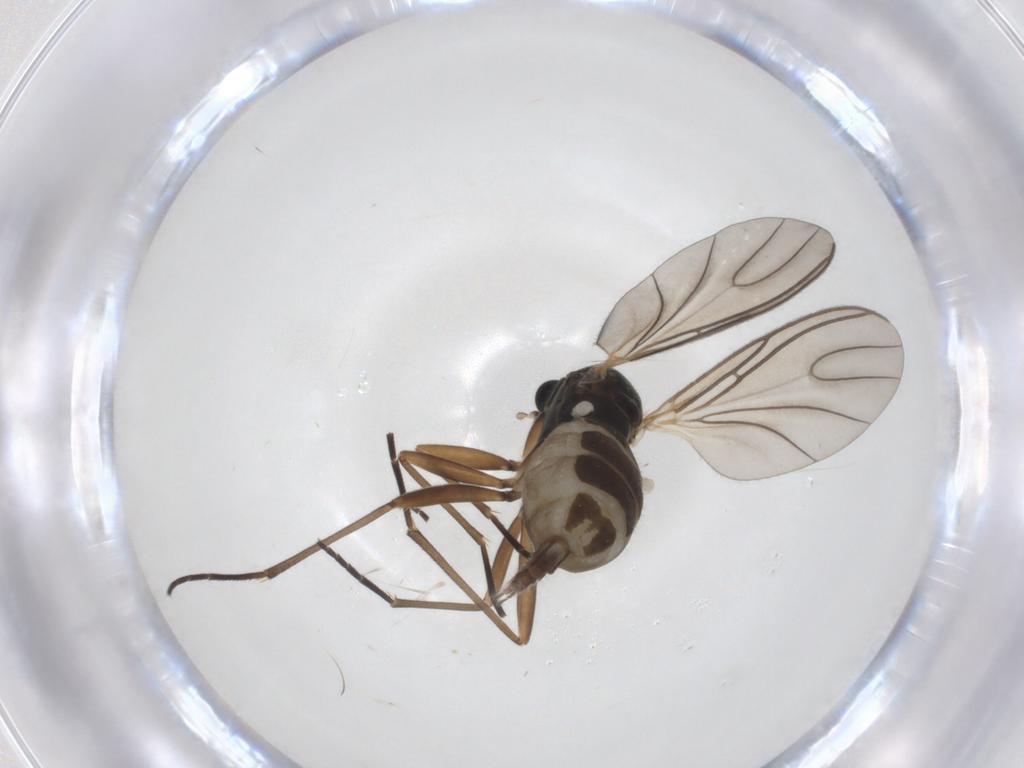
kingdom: Animalia
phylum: Arthropoda
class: Insecta
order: Diptera
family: Sciaridae
